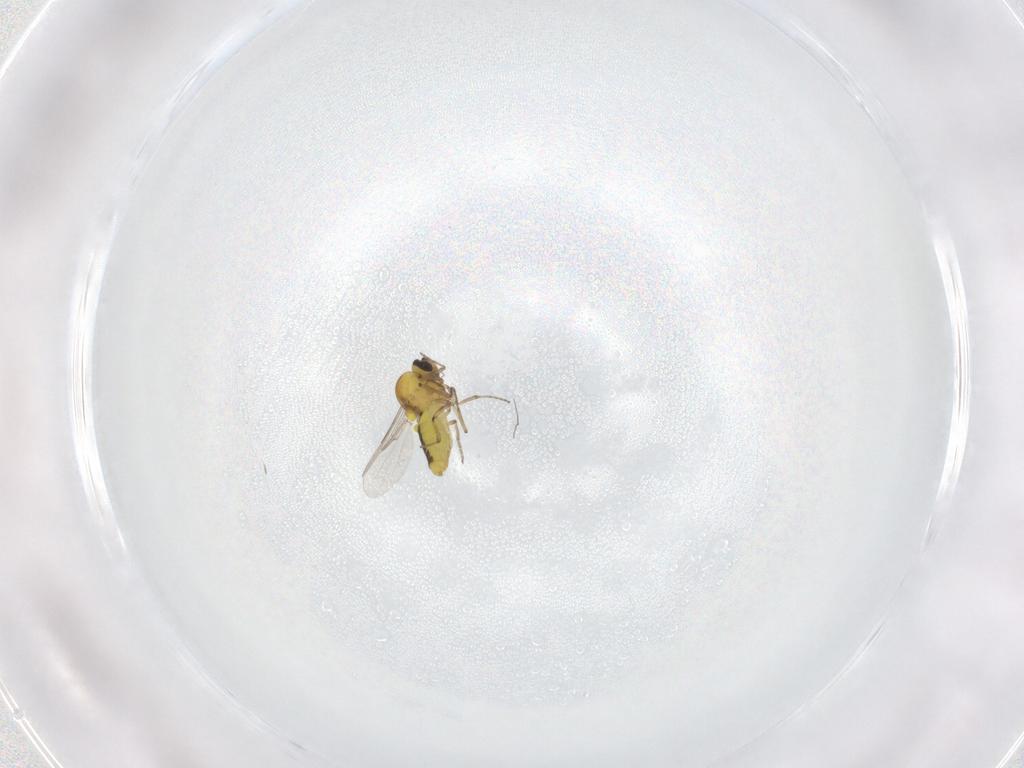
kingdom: Animalia
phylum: Arthropoda
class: Insecta
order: Diptera
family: Ceratopogonidae
